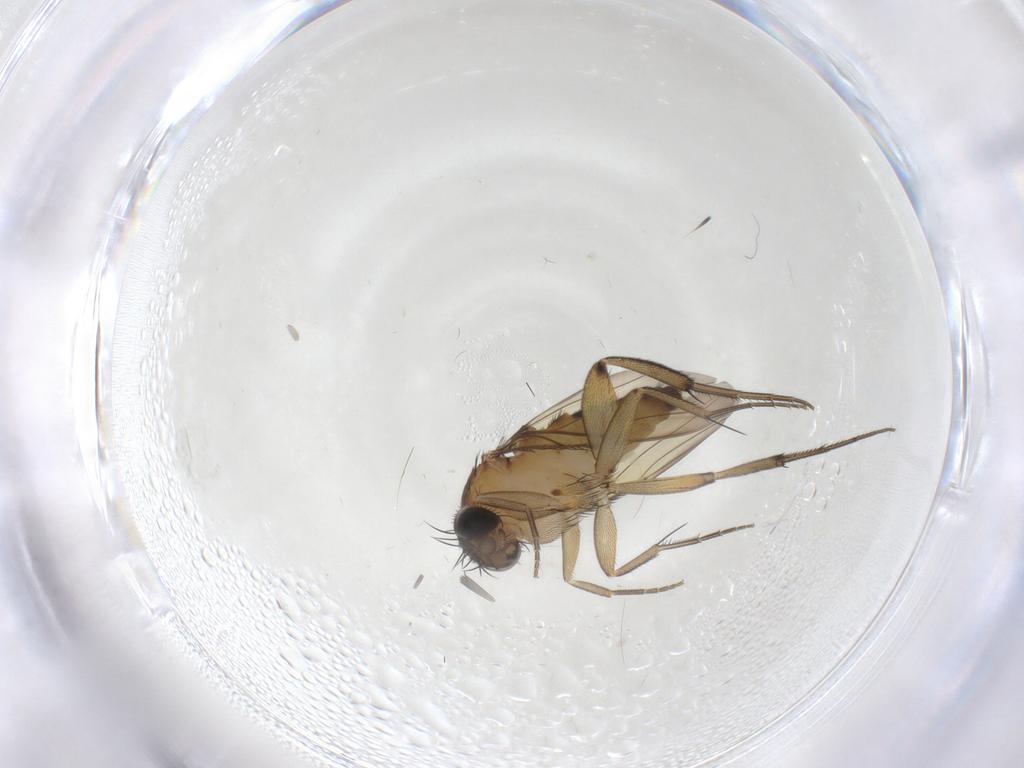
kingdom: Animalia
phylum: Arthropoda
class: Insecta
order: Diptera
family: Phoridae
